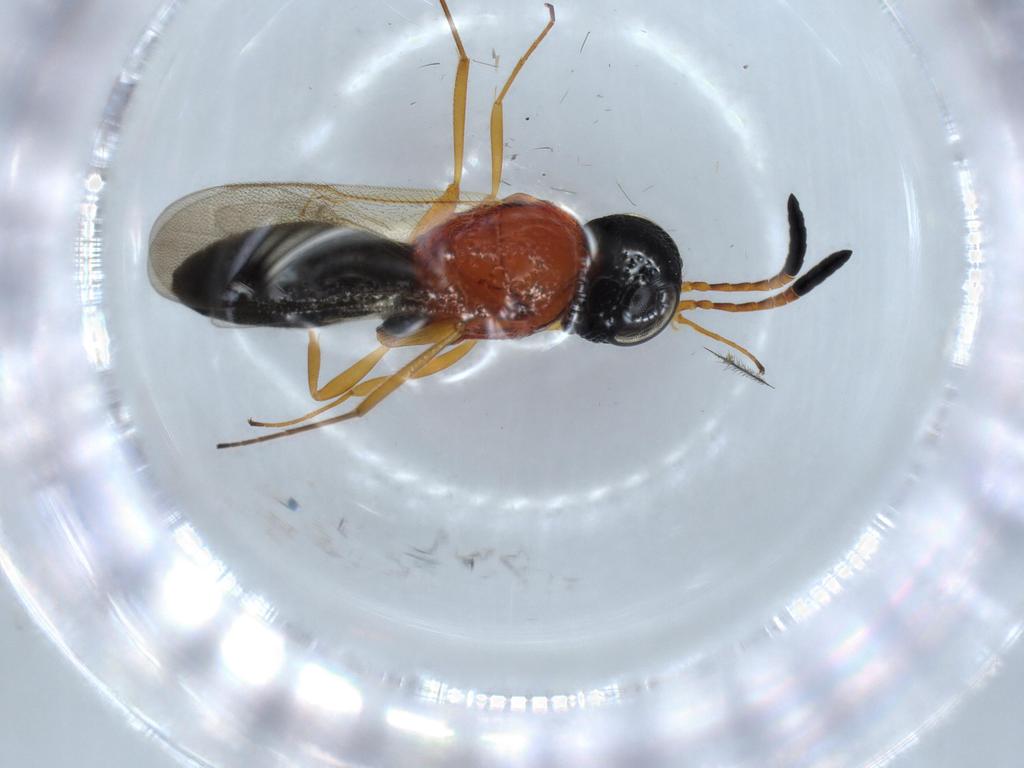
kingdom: Animalia
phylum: Arthropoda
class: Insecta
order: Hymenoptera
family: Scelionidae
